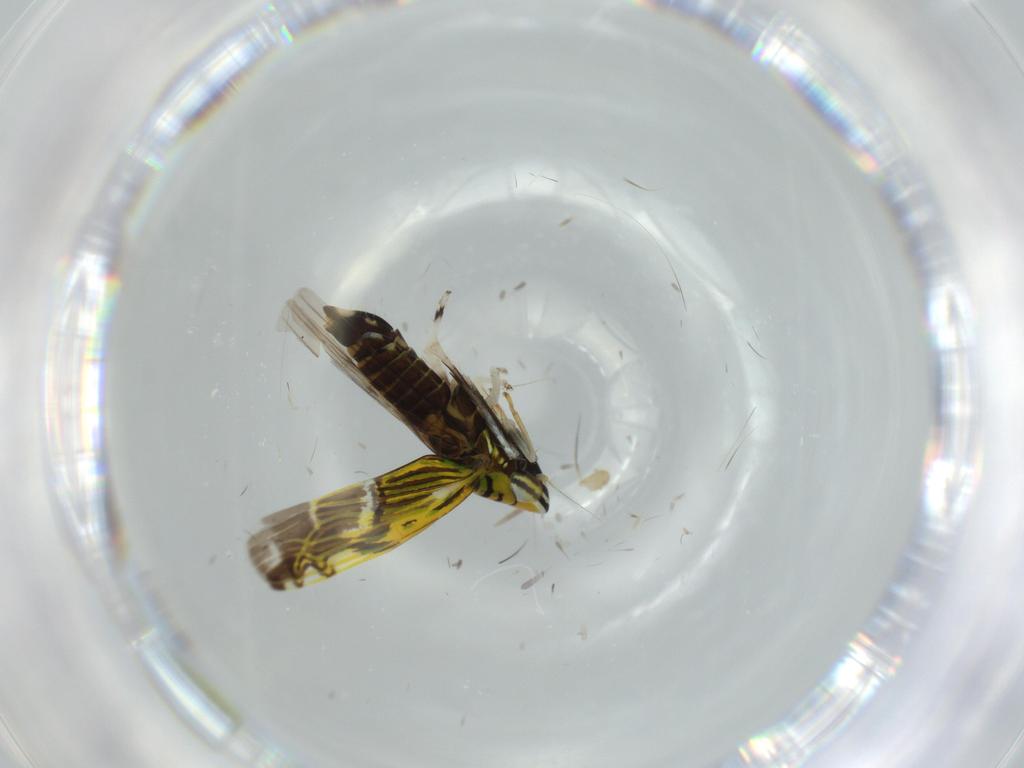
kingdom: Animalia
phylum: Arthropoda
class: Insecta
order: Hemiptera
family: Cicadellidae
